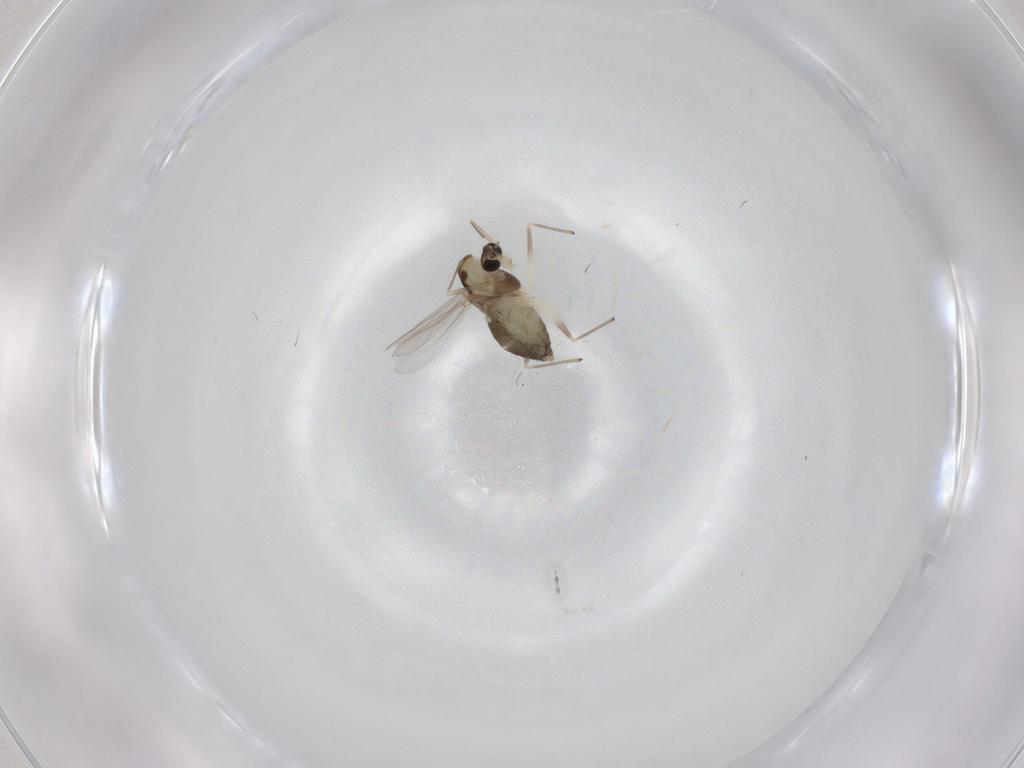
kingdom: Animalia
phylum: Arthropoda
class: Insecta
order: Diptera
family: Chironomidae
